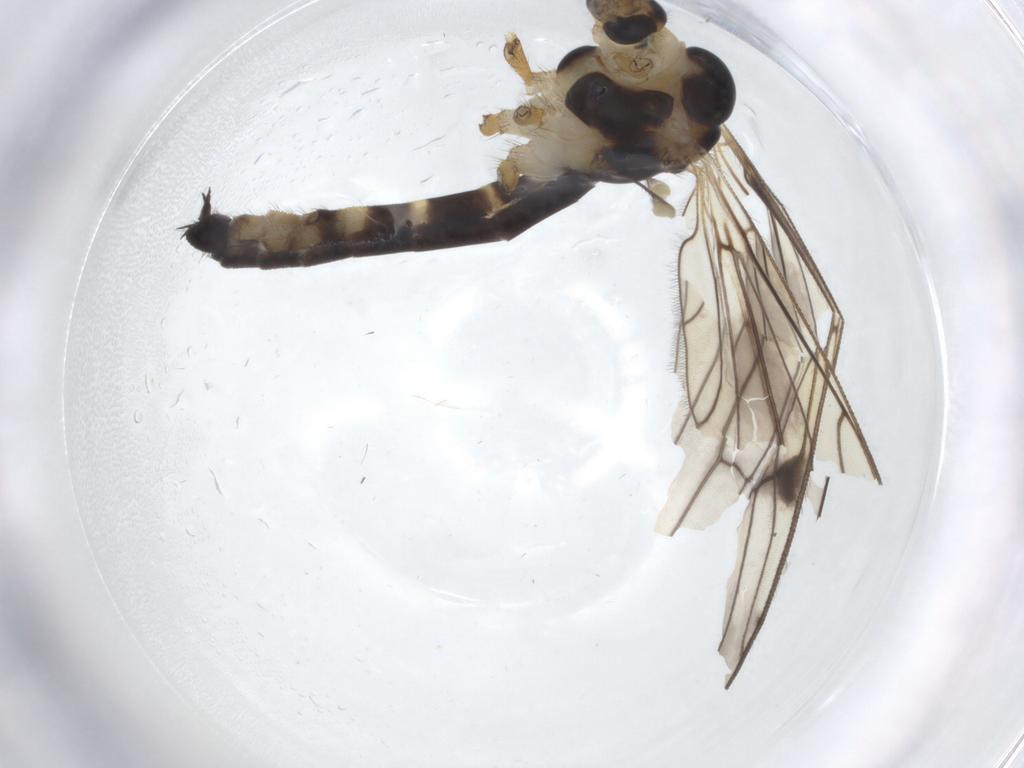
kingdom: Animalia
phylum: Arthropoda
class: Insecta
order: Diptera
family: Limoniidae
